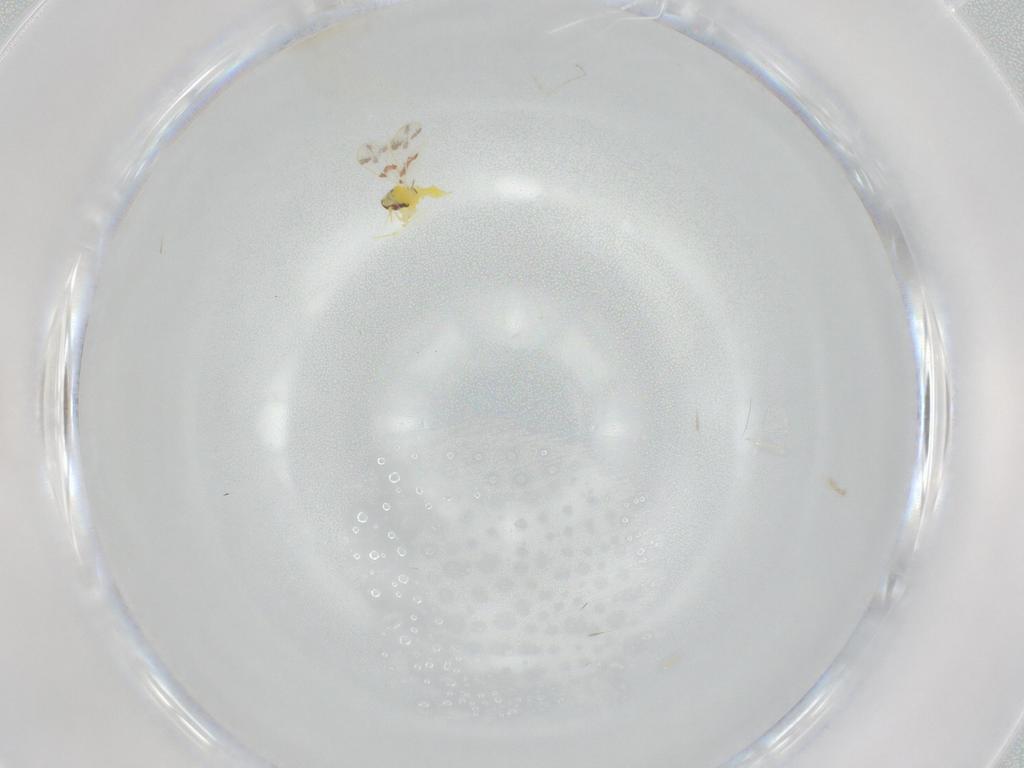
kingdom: Animalia
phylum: Arthropoda
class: Insecta
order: Hemiptera
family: Aleyrodidae
